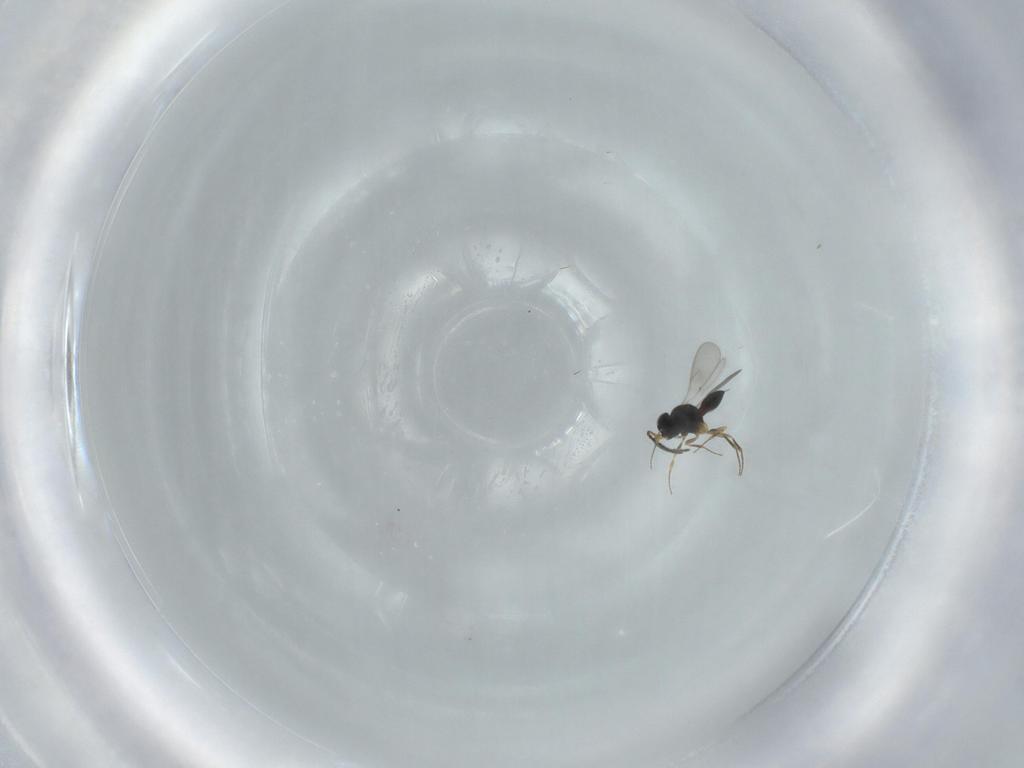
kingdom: Animalia
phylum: Arthropoda
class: Insecta
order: Hymenoptera
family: Scelionidae
